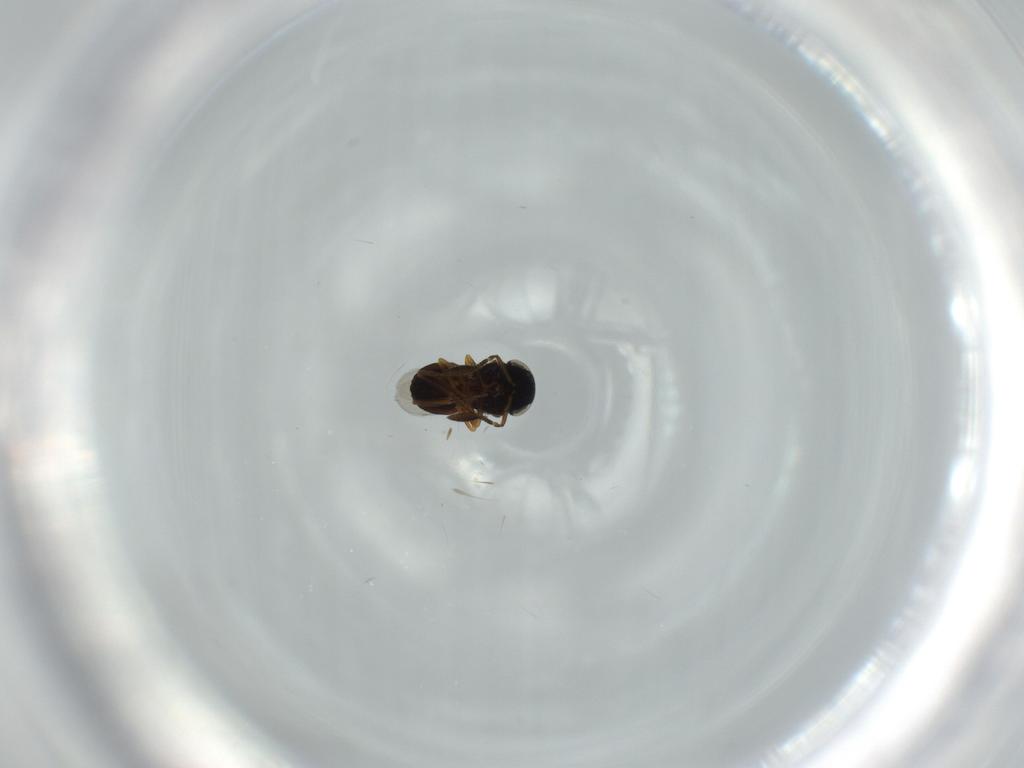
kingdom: Animalia
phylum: Arthropoda
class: Insecta
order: Coleoptera
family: Curculionidae
